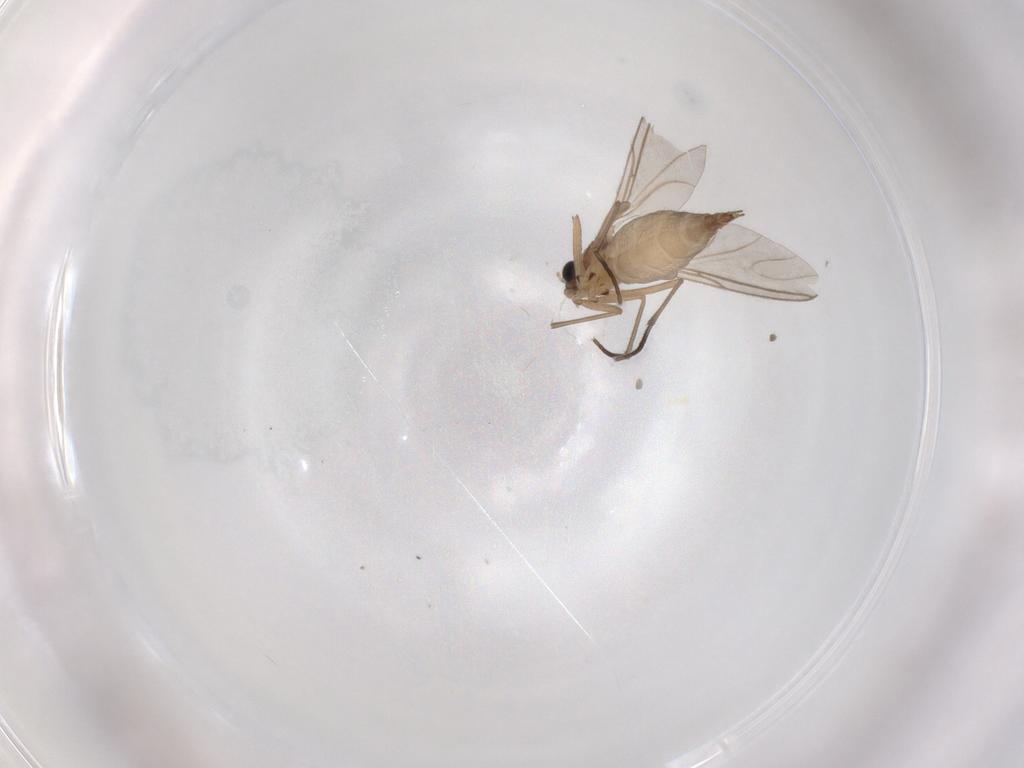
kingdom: Animalia
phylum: Arthropoda
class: Insecta
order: Diptera
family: Sciaridae
